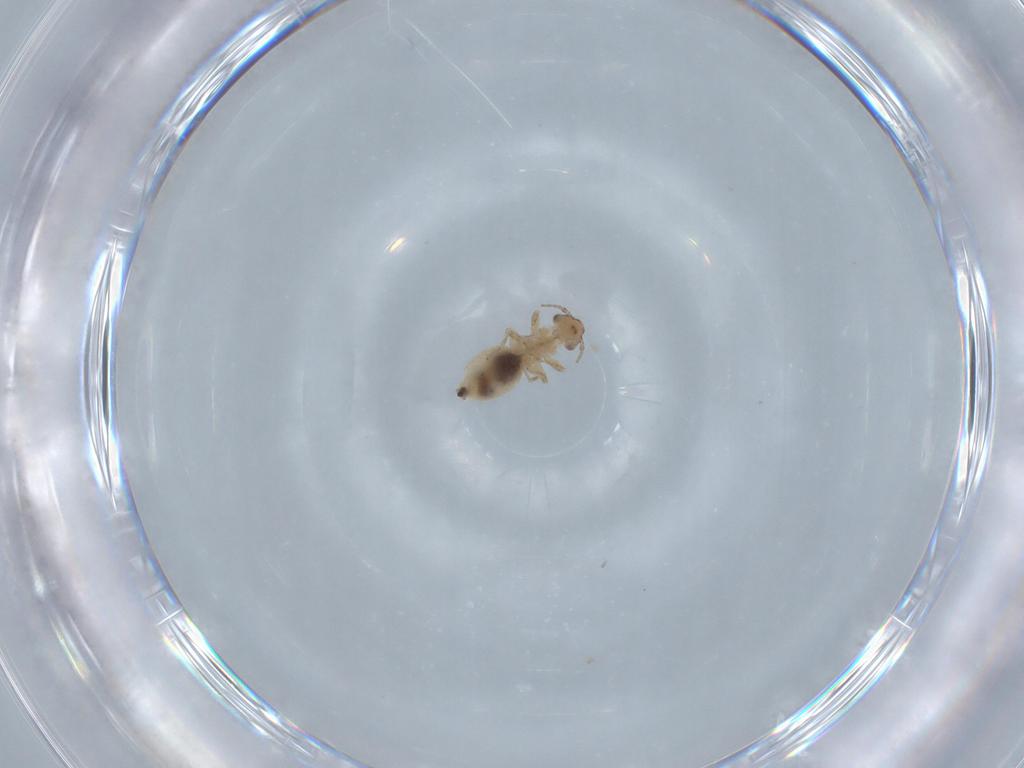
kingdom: Animalia
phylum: Arthropoda
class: Insecta
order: Psocodea
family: Lepidopsocidae
